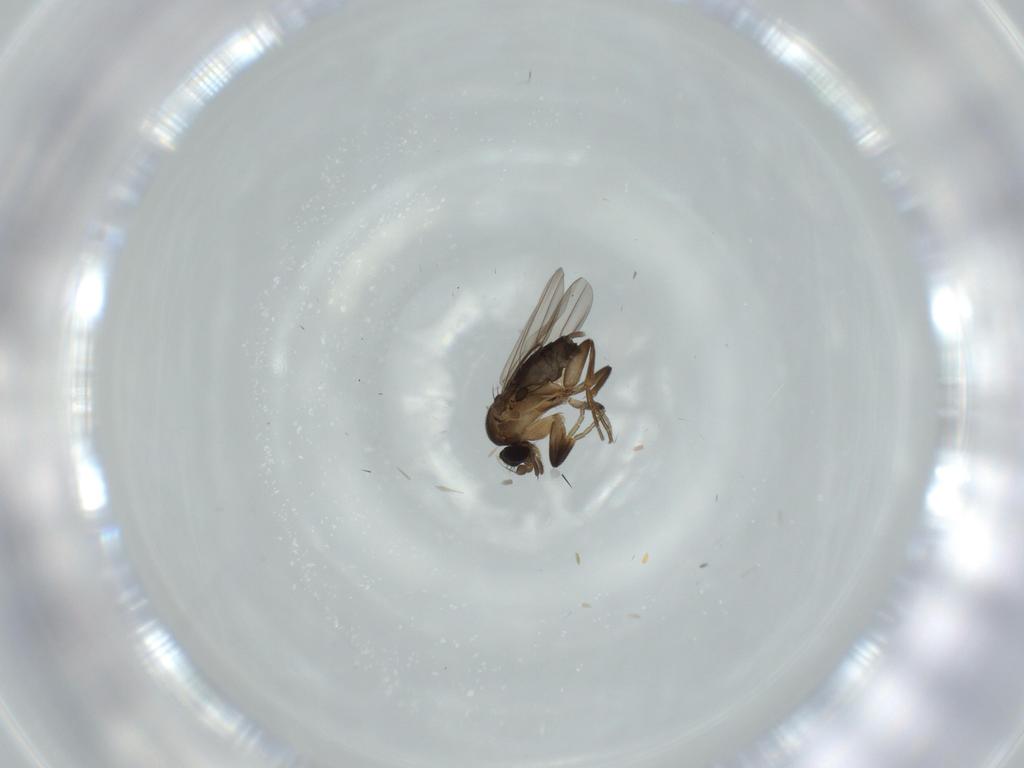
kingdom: Animalia
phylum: Arthropoda
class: Insecta
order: Diptera
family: Phoridae
